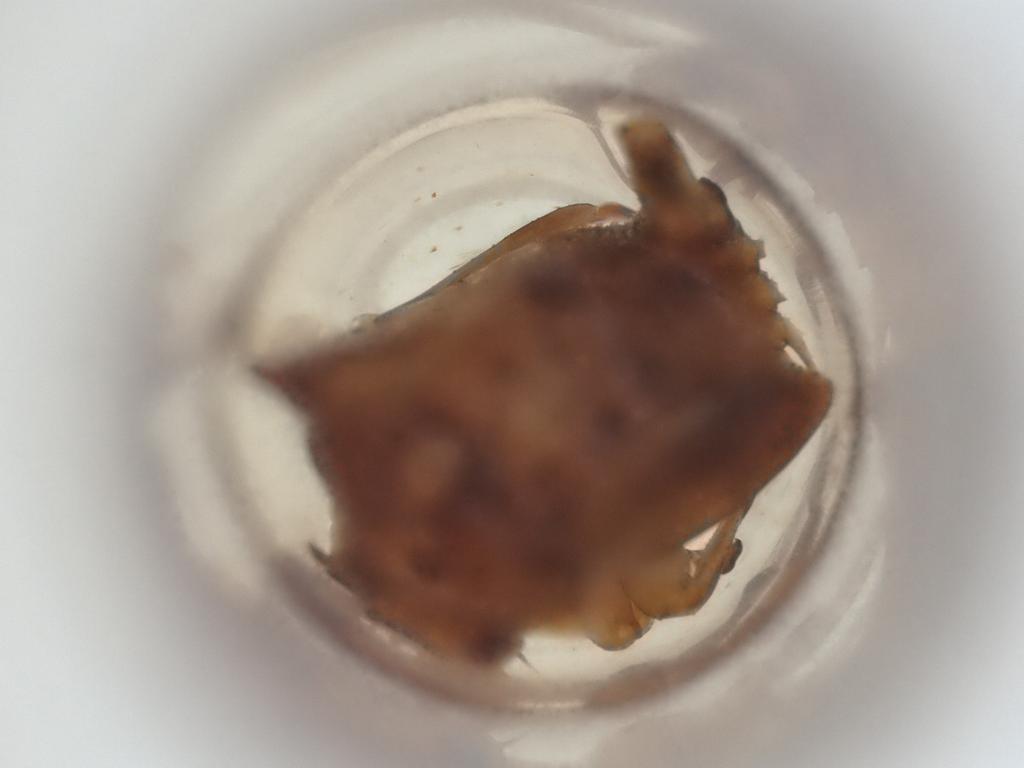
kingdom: Animalia
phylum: Arthropoda
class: Insecta
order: Hemiptera
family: Membracidae
